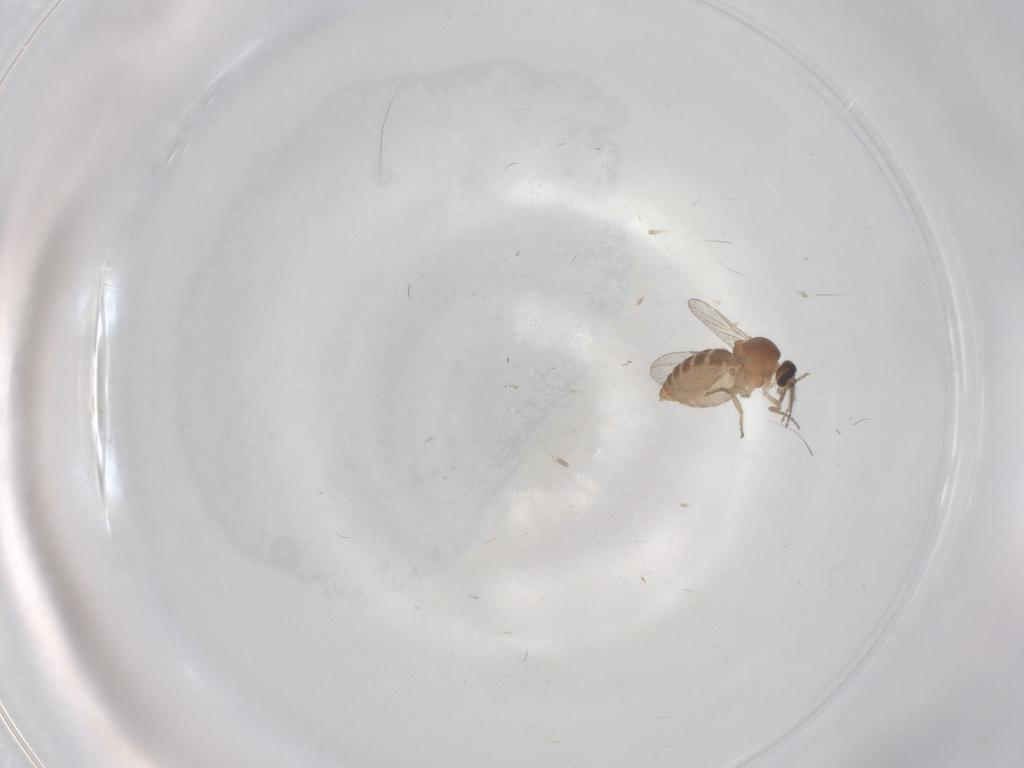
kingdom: Animalia
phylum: Arthropoda
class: Insecta
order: Diptera
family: Ceratopogonidae
